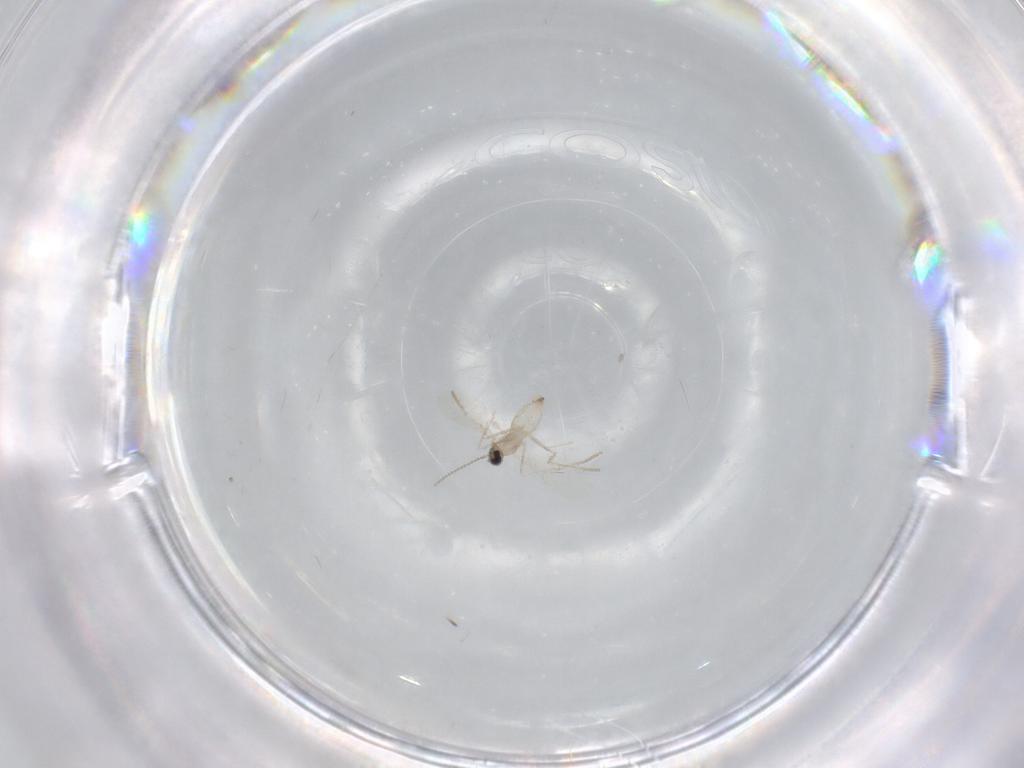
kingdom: Animalia
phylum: Arthropoda
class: Insecta
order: Diptera
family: Cecidomyiidae
